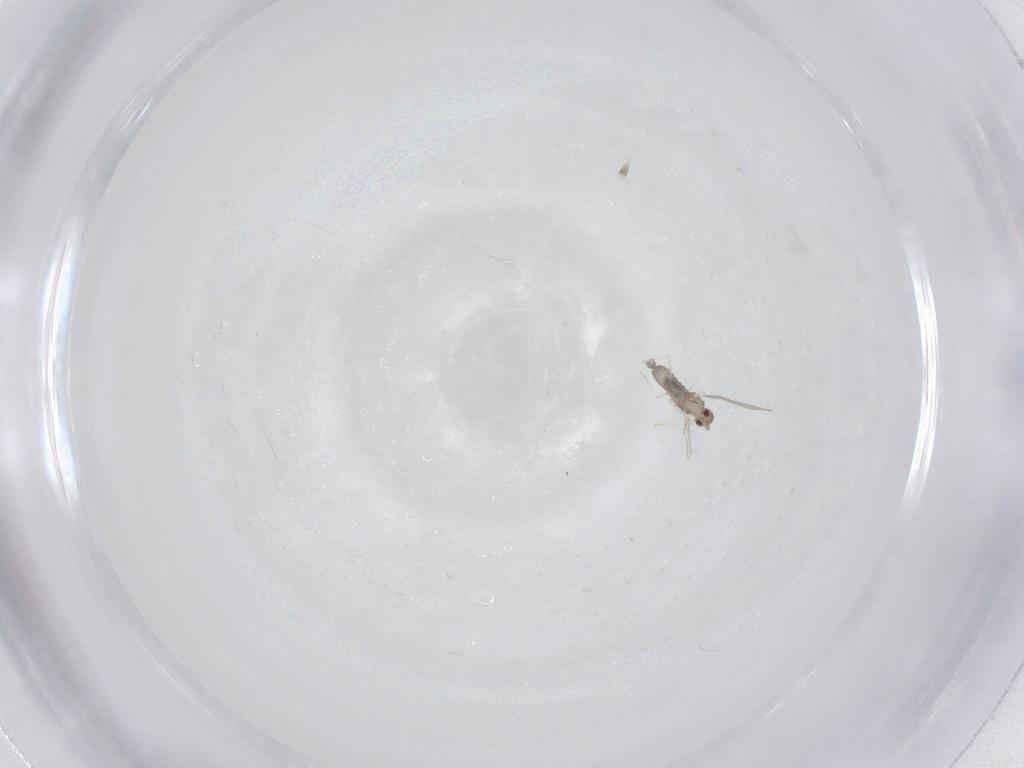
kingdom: Animalia
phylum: Arthropoda
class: Insecta
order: Diptera
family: Cecidomyiidae
